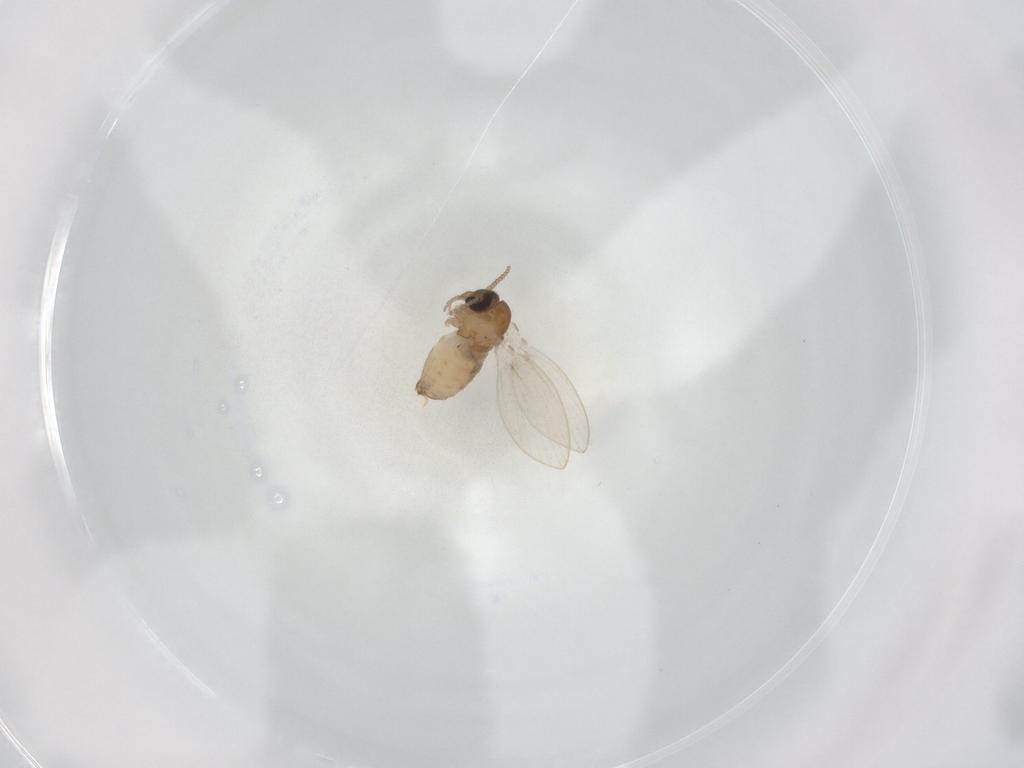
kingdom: Animalia
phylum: Arthropoda
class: Insecta
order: Diptera
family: Psychodidae
